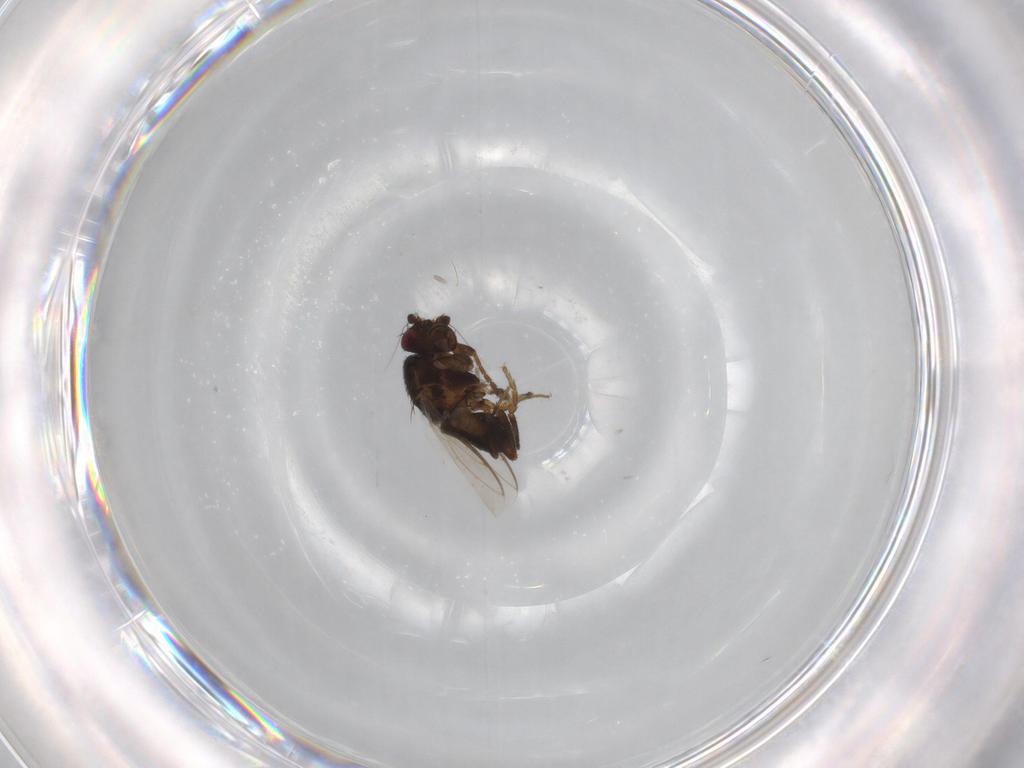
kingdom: Animalia
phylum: Arthropoda
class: Insecta
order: Diptera
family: Sphaeroceridae
